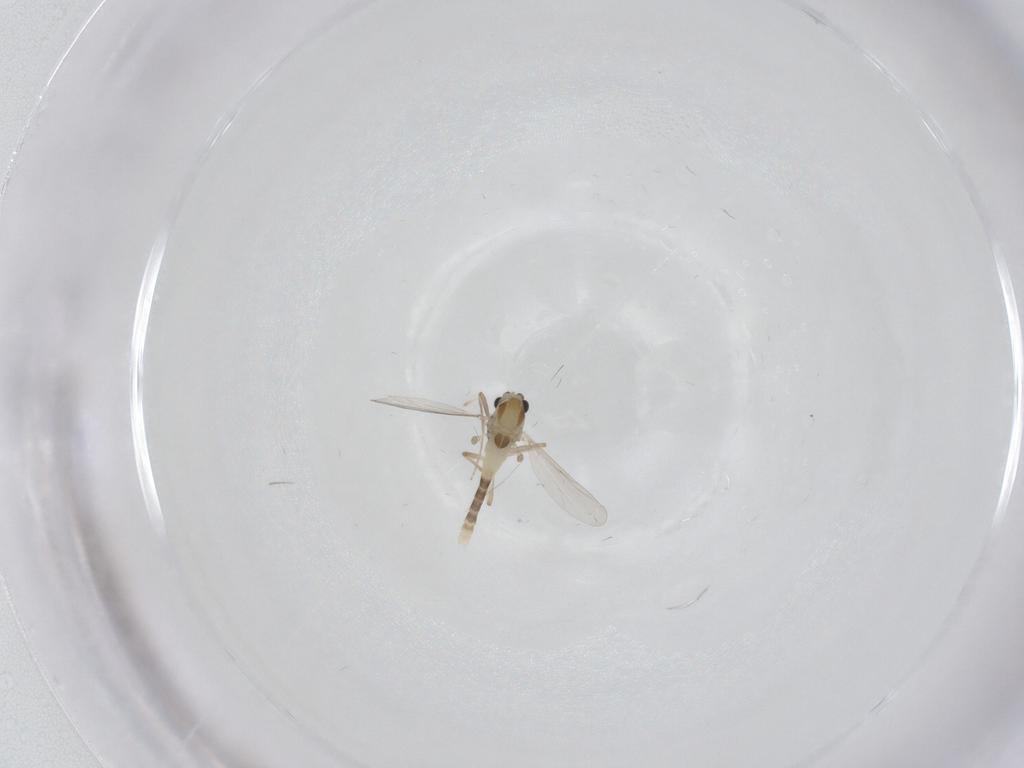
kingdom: Animalia
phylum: Arthropoda
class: Insecta
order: Diptera
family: Chironomidae
